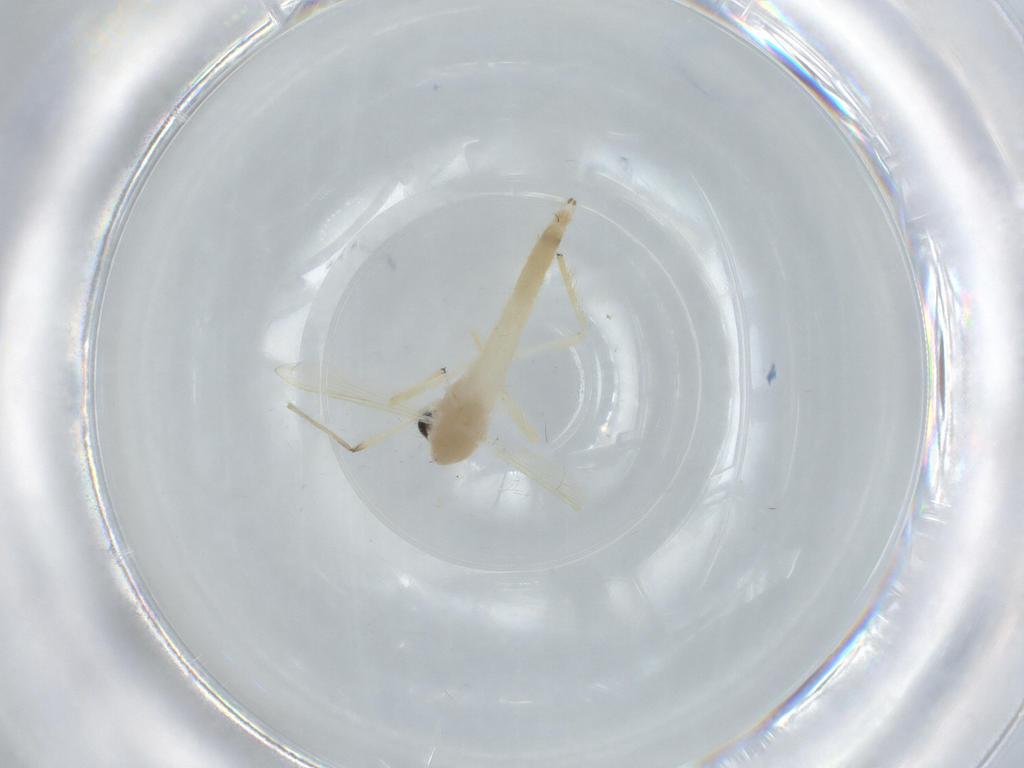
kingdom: Animalia
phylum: Arthropoda
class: Insecta
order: Diptera
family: Chironomidae
